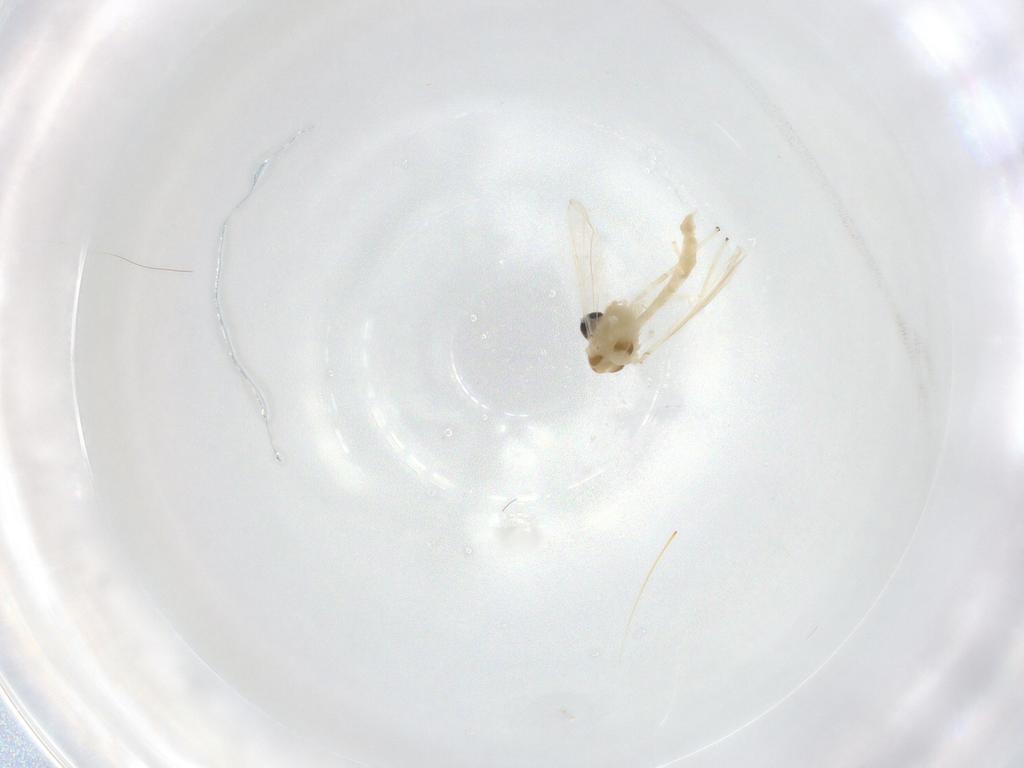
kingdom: Animalia
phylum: Arthropoda
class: Insecta
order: Diptera
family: Chironomidae
